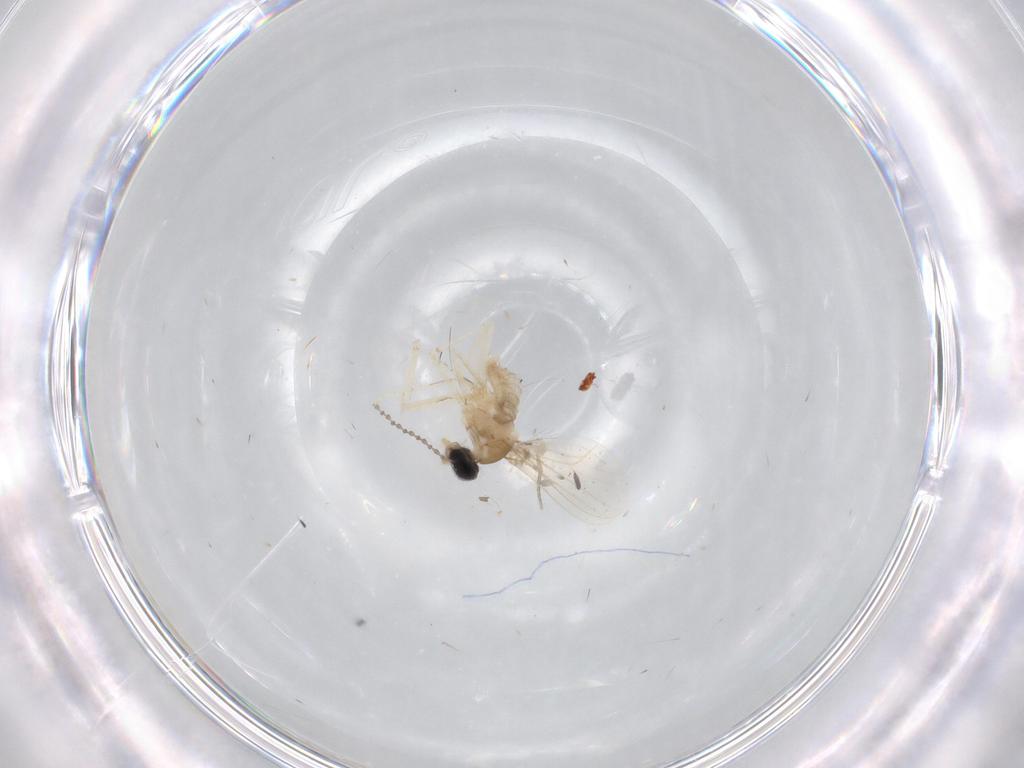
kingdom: Animalia
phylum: Arthropoda
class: Insecta
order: Diptera
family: Cecidomyiidae
